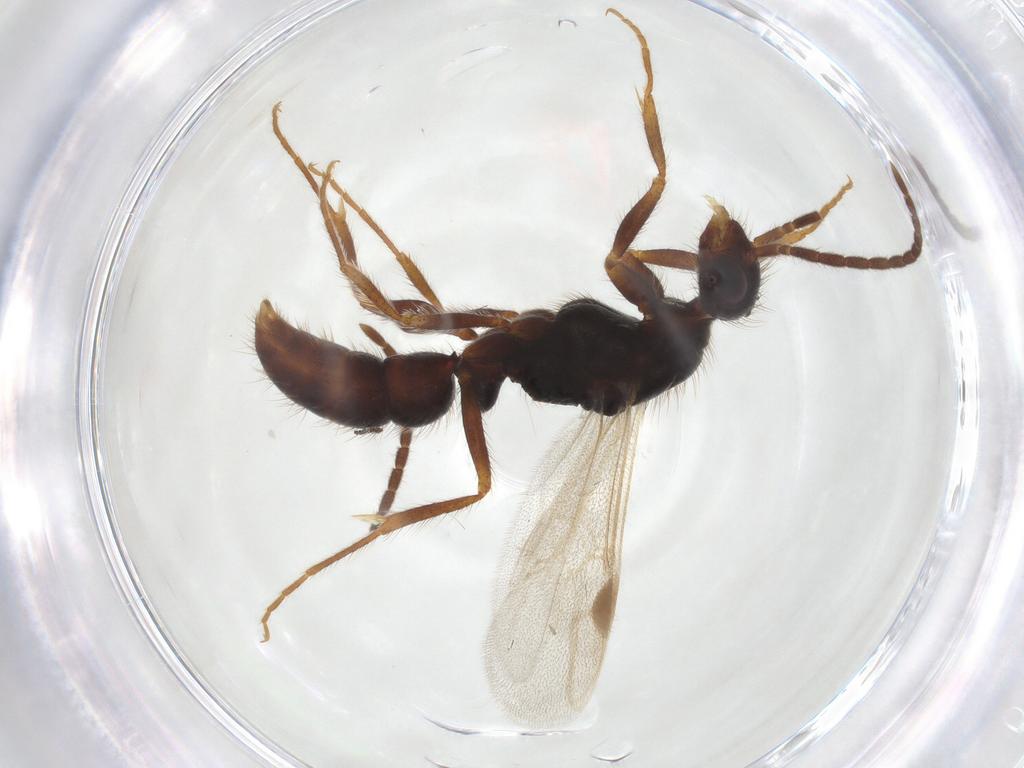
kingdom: Animalia
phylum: Arthropoda
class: Insecta
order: Hymenoptera
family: Formicidae
